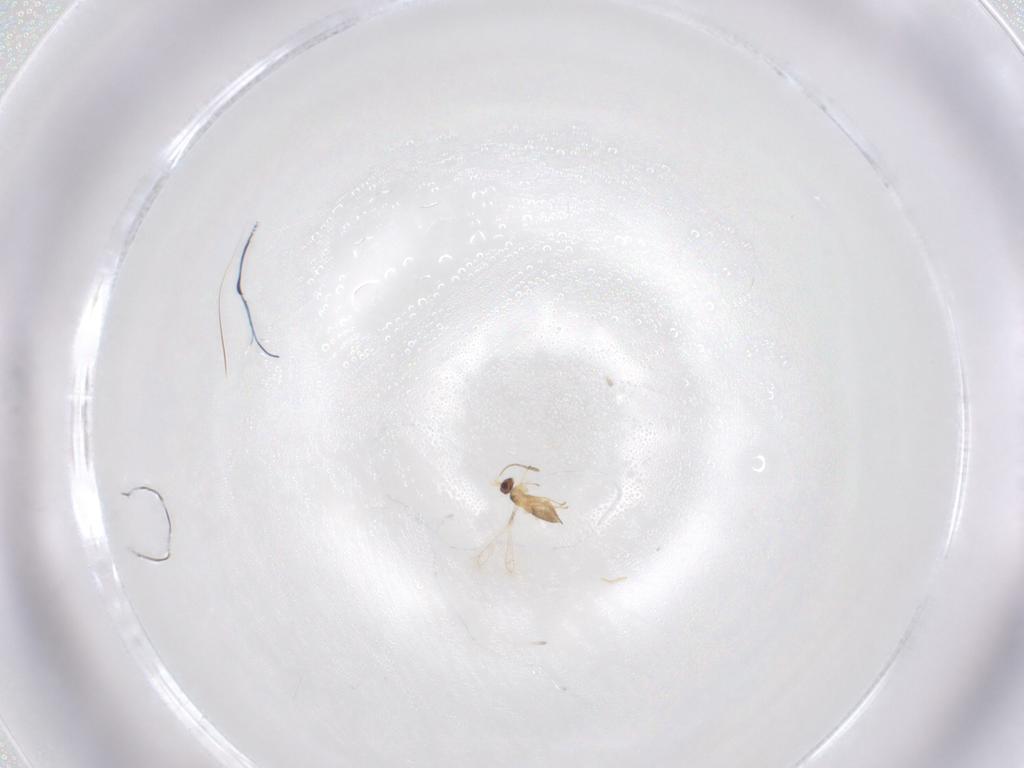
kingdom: Animalia
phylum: Arthropoda
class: Insecta
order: Hymenoptera
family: Mymaridae
